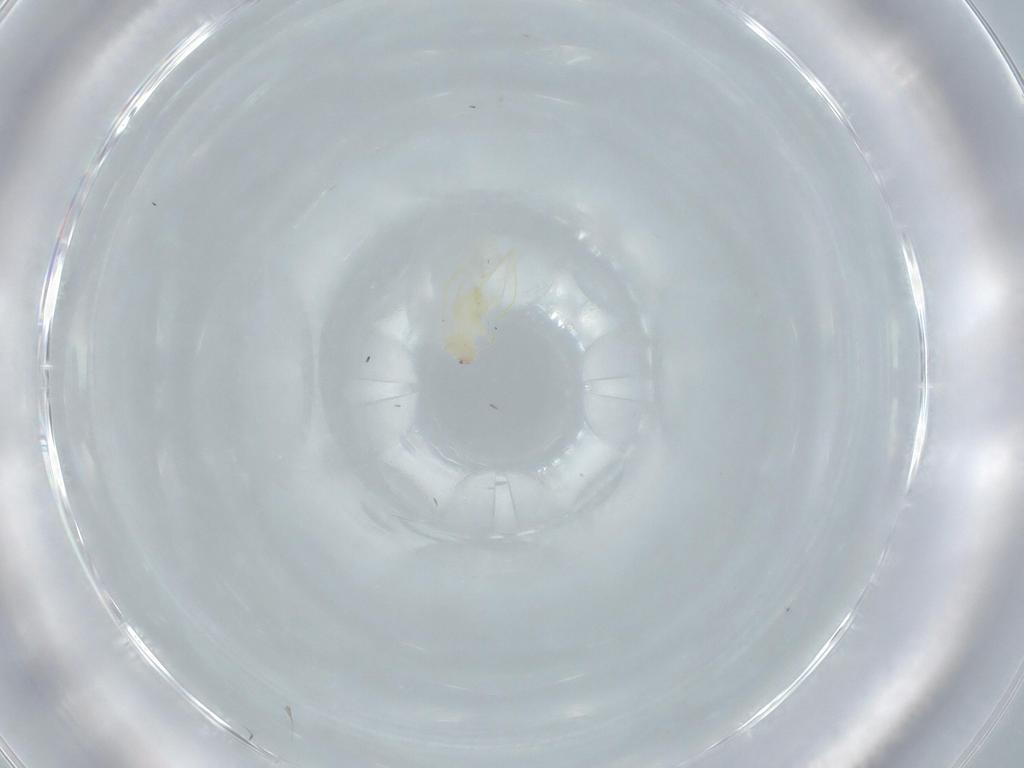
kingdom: Animalia
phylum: Arthropoda
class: Insecta
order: Hemiptera
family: Aleyrodidae
